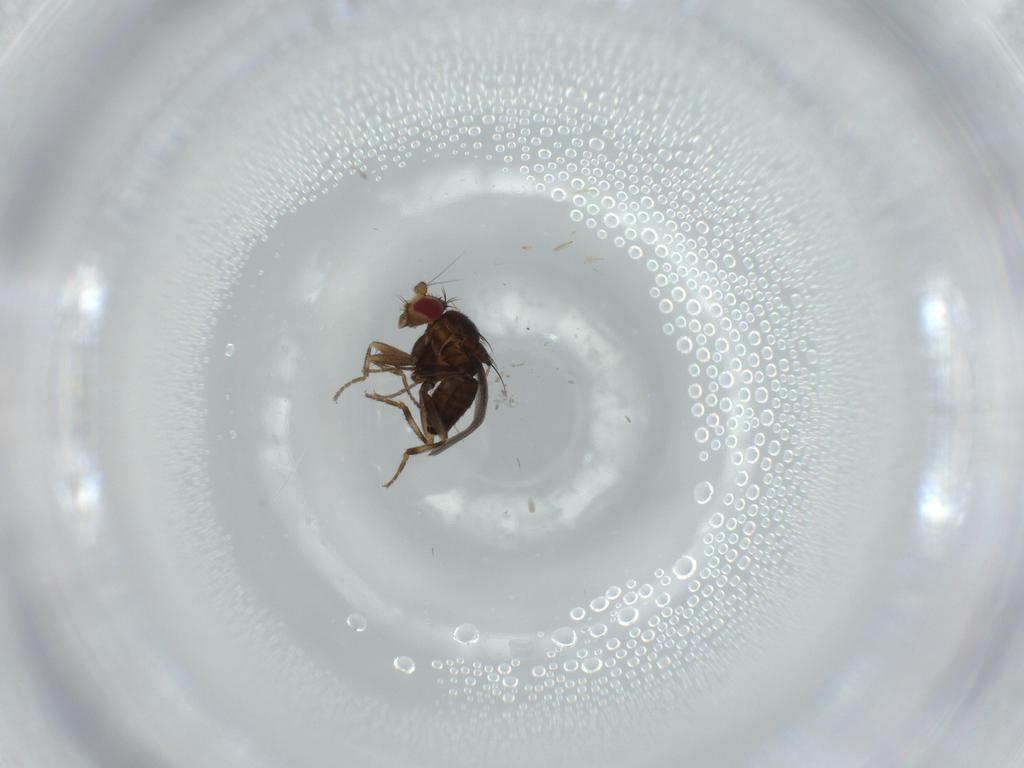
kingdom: Animalia
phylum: Arthropoda
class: Insecta
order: Diptera
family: Sphaeroceridae
